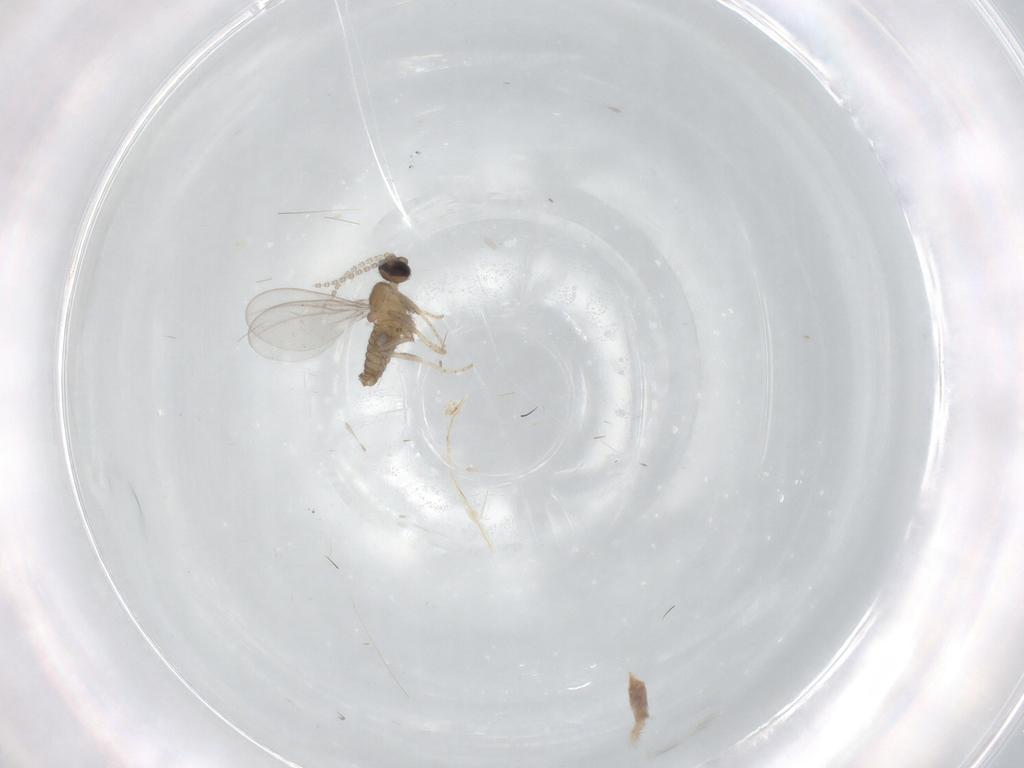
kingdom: Animalia
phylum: Arthropoda
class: Insecta
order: Diptera
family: Cecidomyiidae
